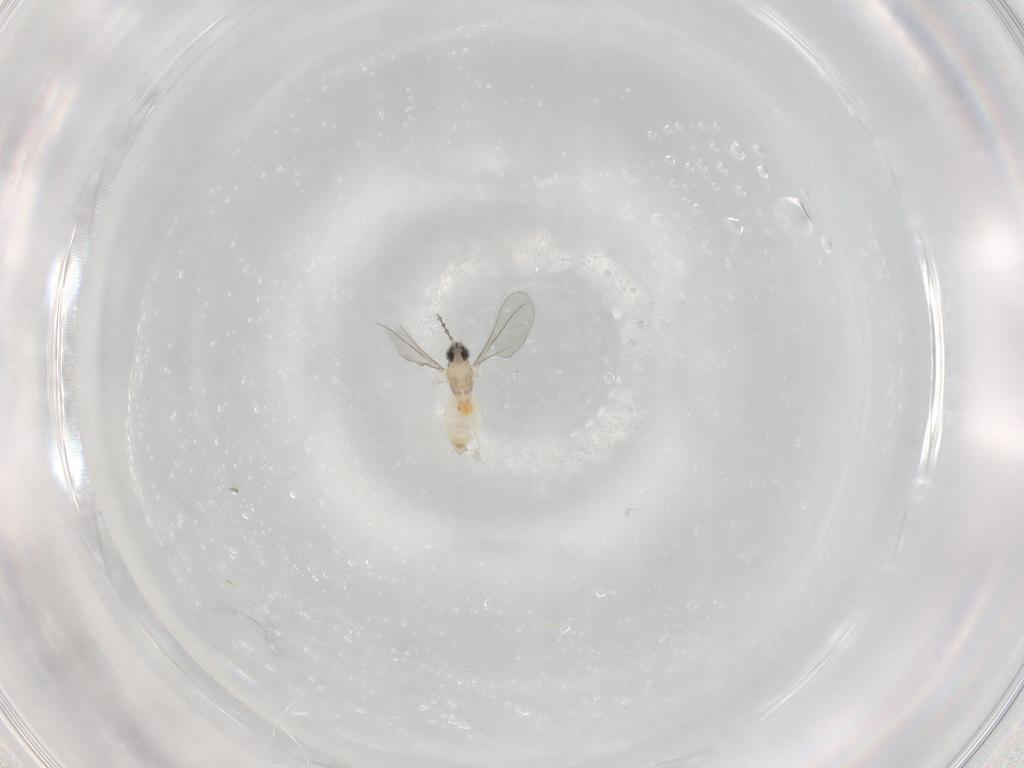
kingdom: Animalia
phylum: Arthropoda
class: Insecta
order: Diptera
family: Cecidomyiidae
